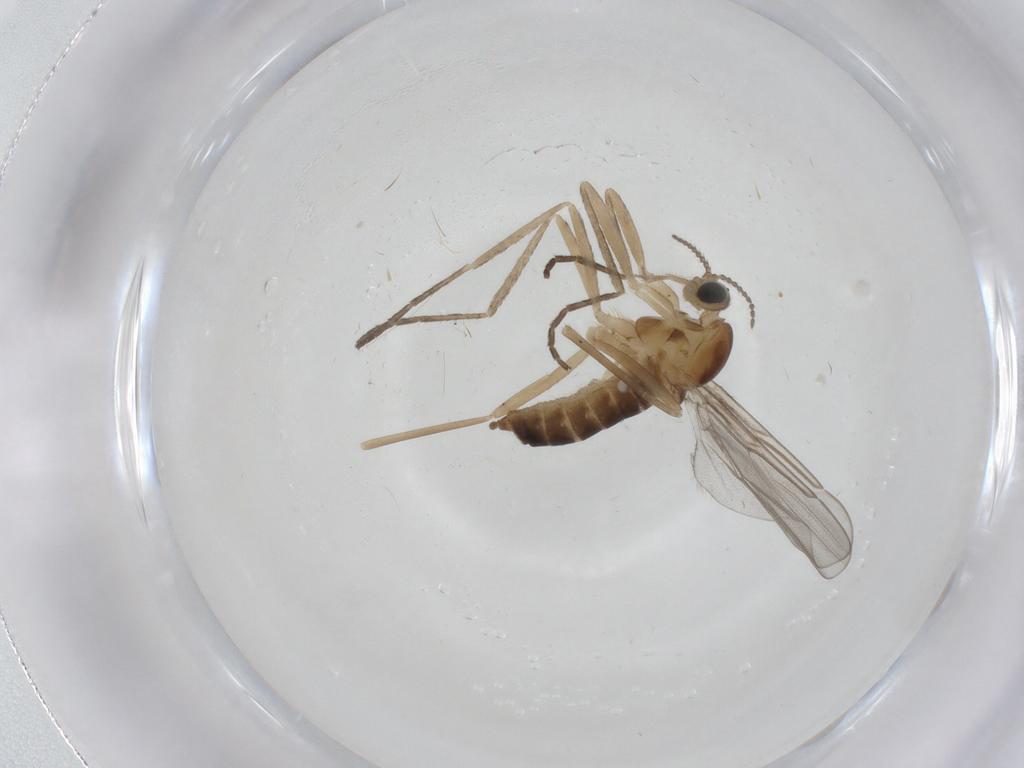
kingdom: Animalia
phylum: Arthropoda
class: Insecta
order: Diptera
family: Cecidomyiidae
